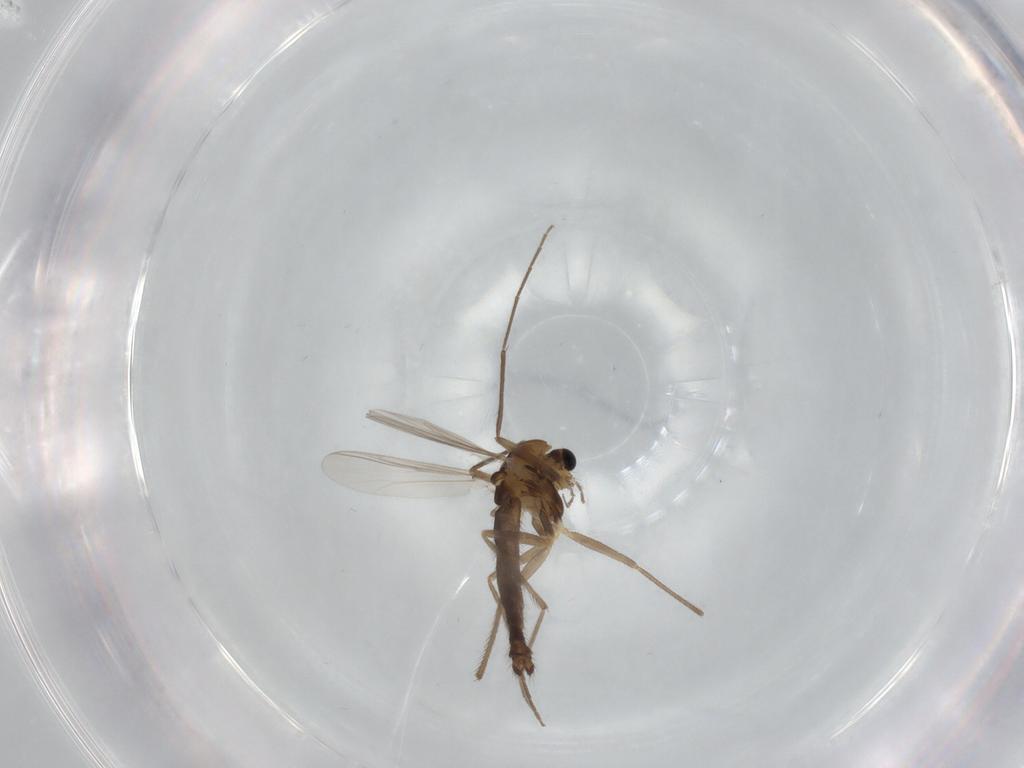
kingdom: Animalia
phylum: Arthropoda
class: Insecta
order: Diptera
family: Chironomidae
